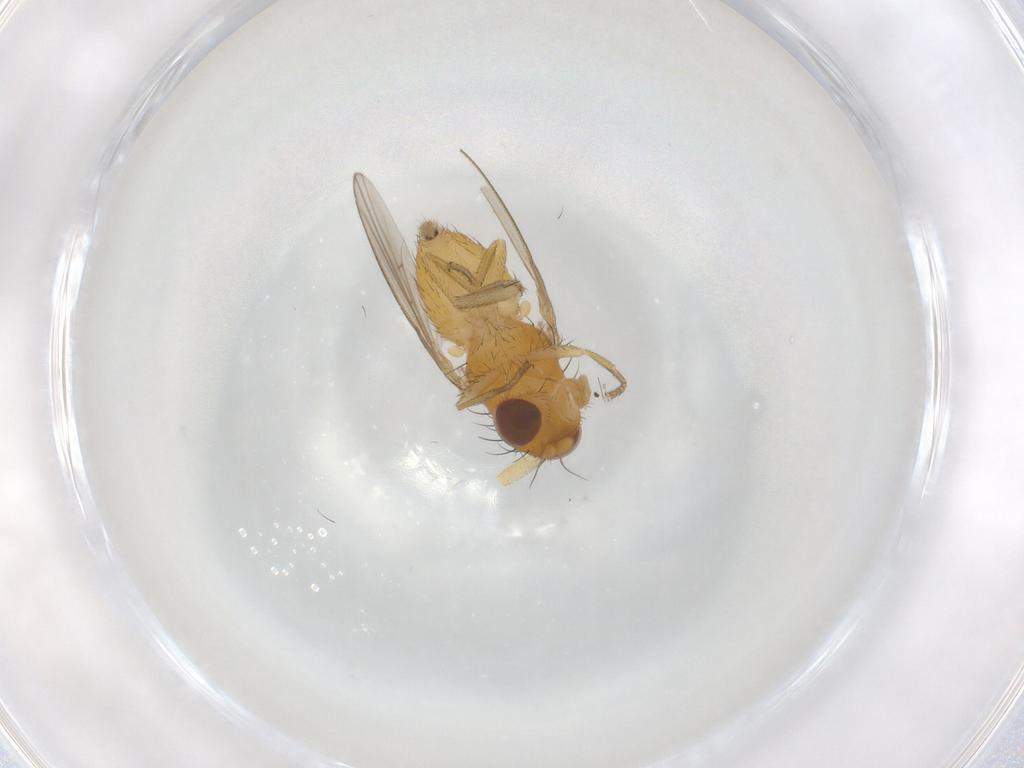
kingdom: Animalia
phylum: Arthropoda
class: Insecta
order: Diptera
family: Cecidomyiidae
